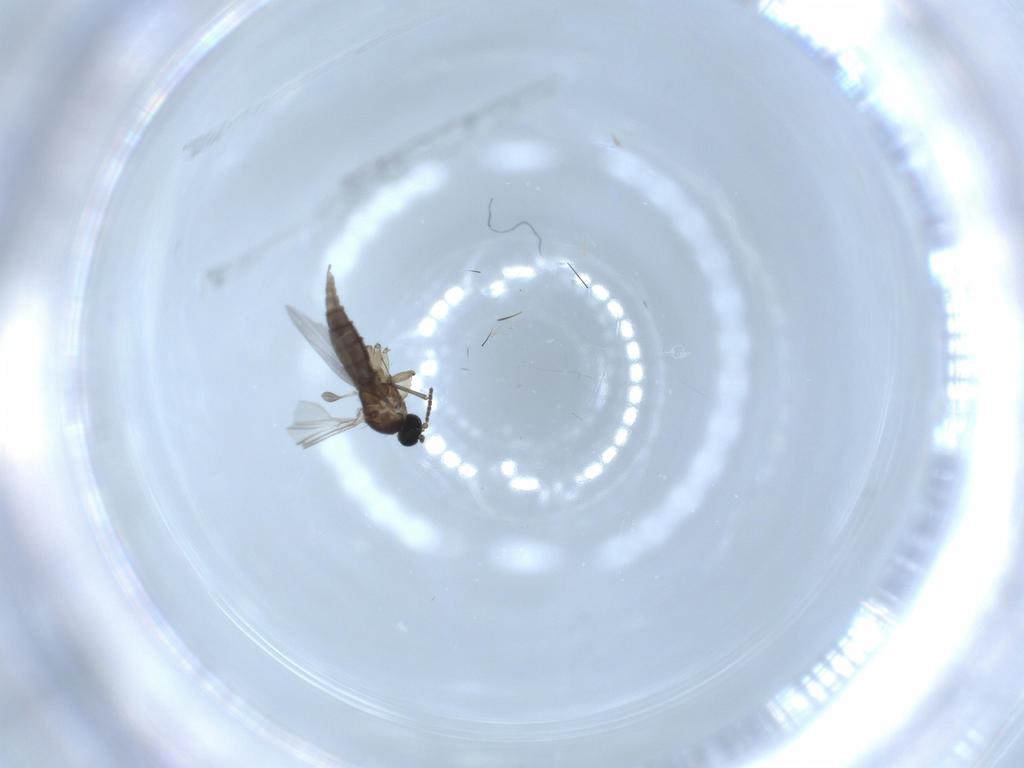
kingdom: Animalia
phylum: Arthropoda
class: Insecta
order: Diptera
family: Sciaridae
